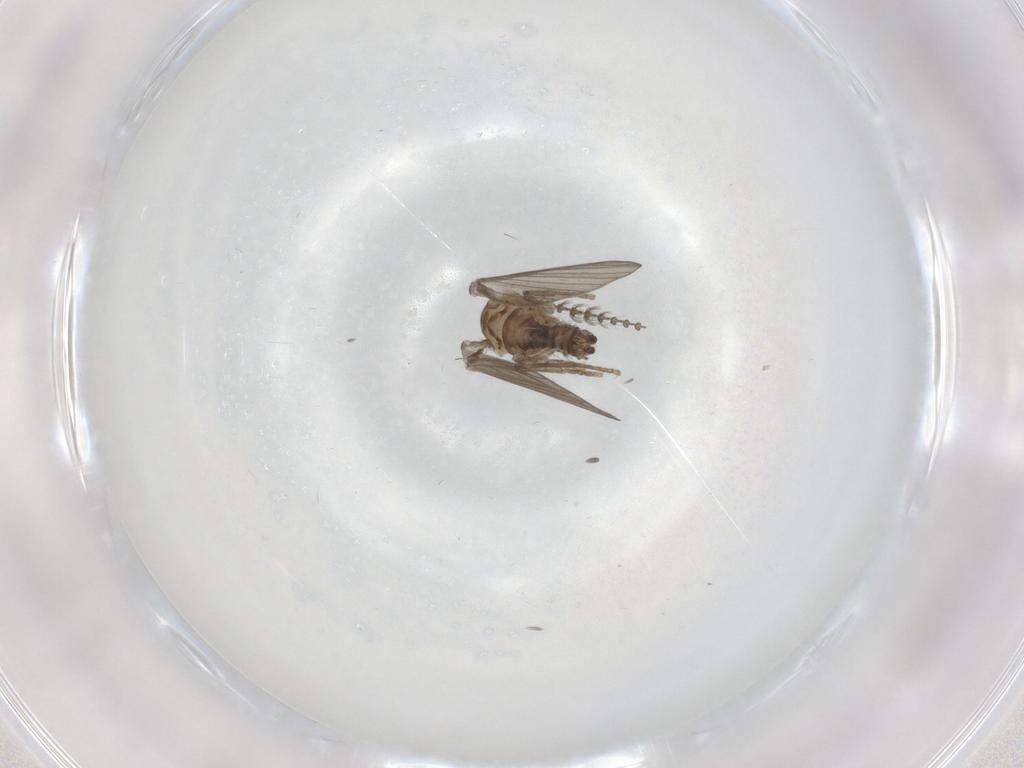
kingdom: Animalia
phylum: Arthropoda
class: Insecta
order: Diptera
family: Psychodidae
